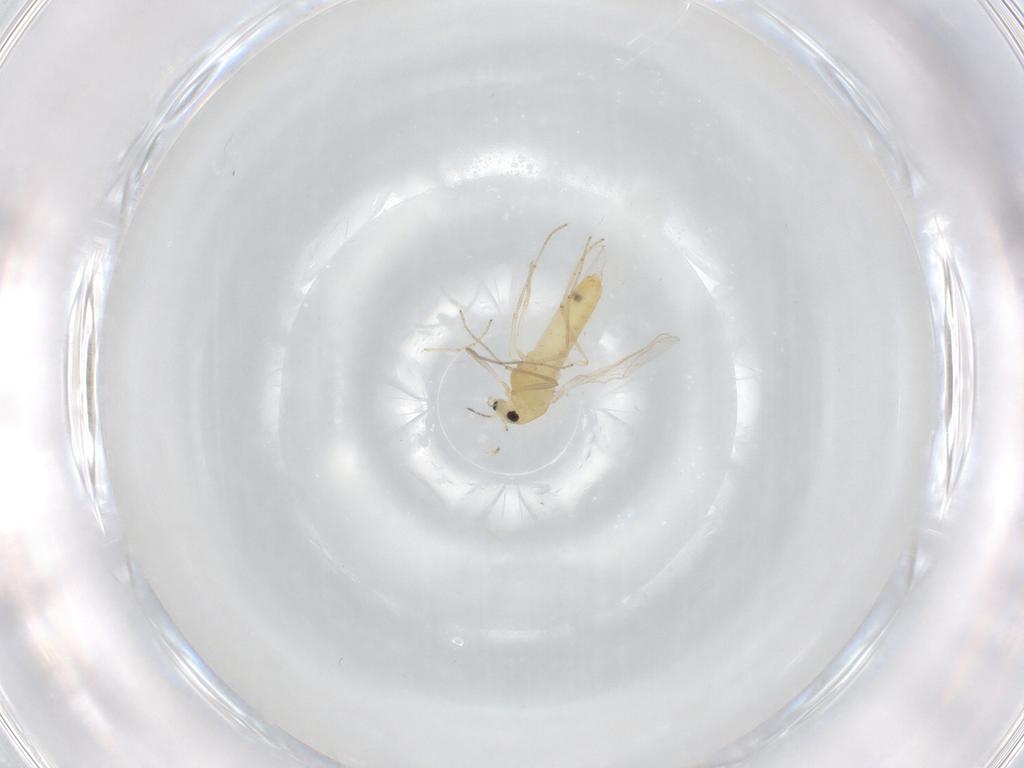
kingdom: Animalia
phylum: Arthropoda
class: Insecta
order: Diptera
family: Chironomidae
